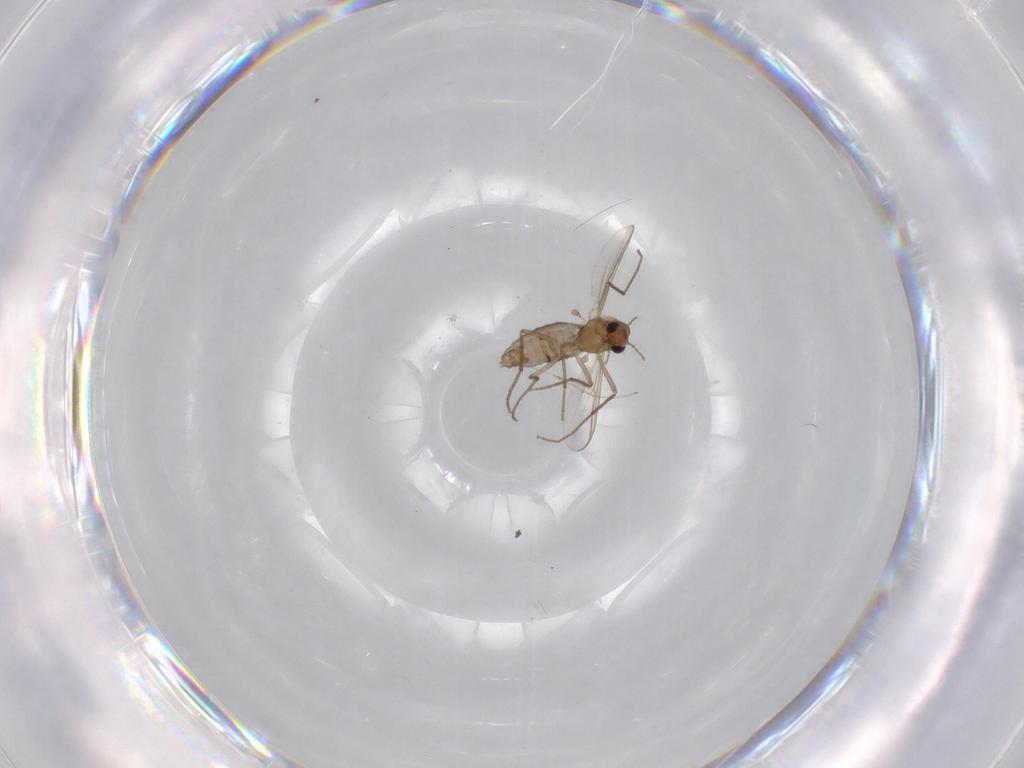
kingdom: Animalia
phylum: Arthropoda
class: Insecta
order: Diptera
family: Chironomidae
